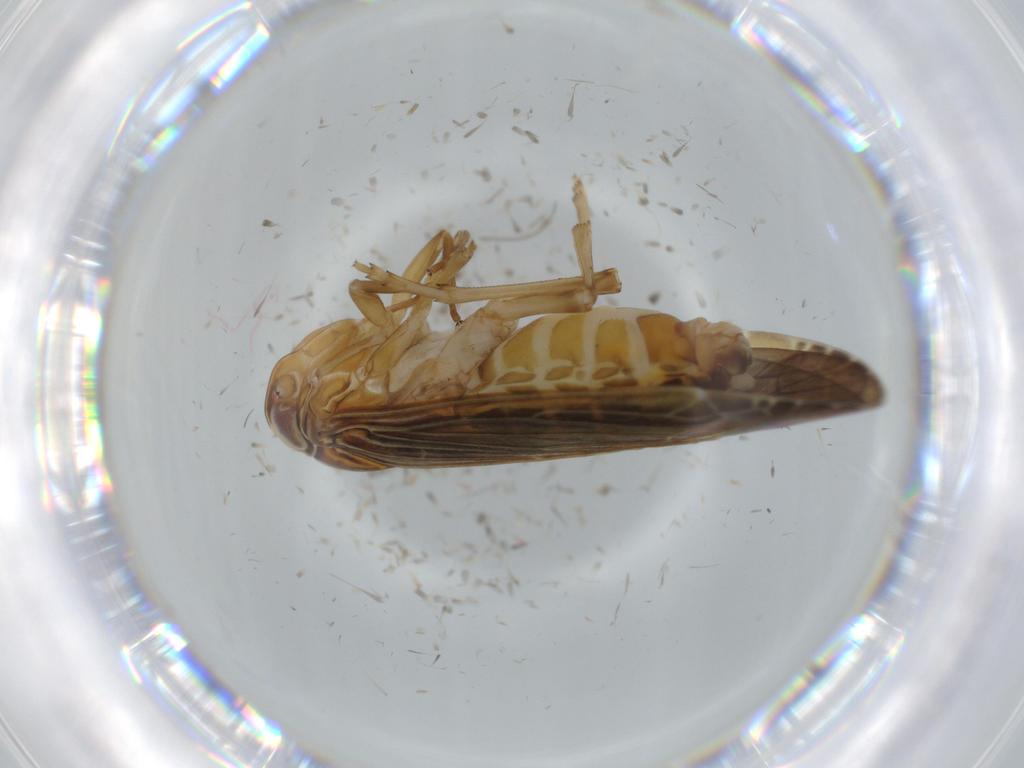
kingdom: Animalia
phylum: Arthropoda
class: Insecta
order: Hemiptera
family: Achilidae
